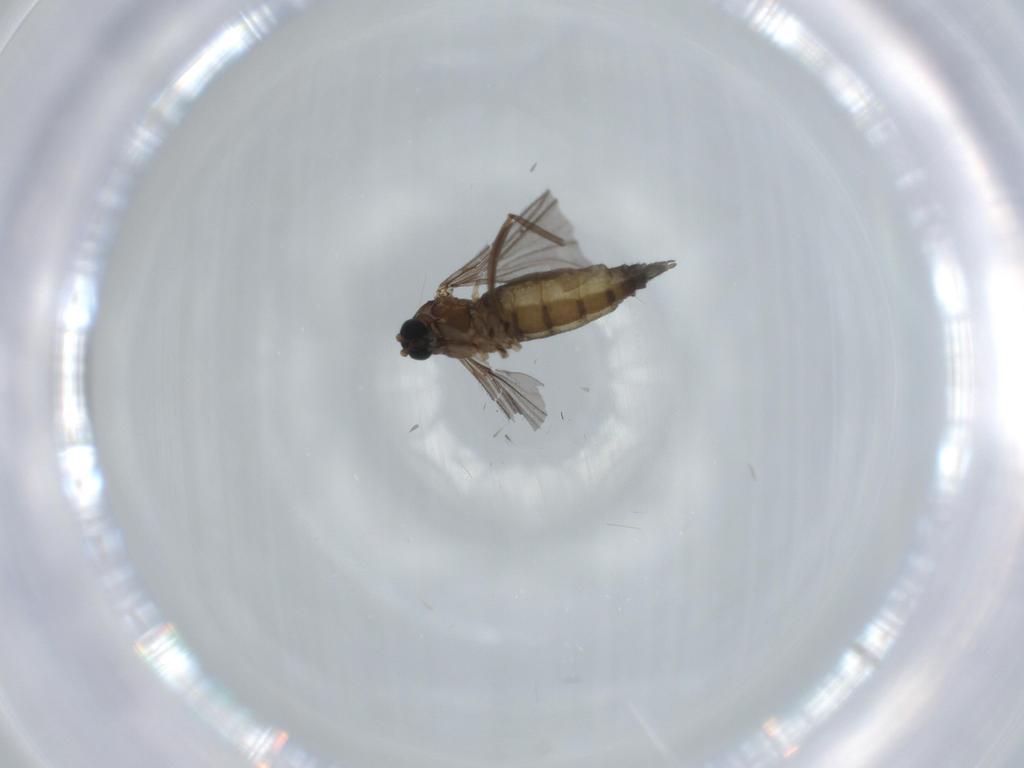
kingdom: Animalia
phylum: Arthropoda
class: Insecta
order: Diptera
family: Sciaridae
